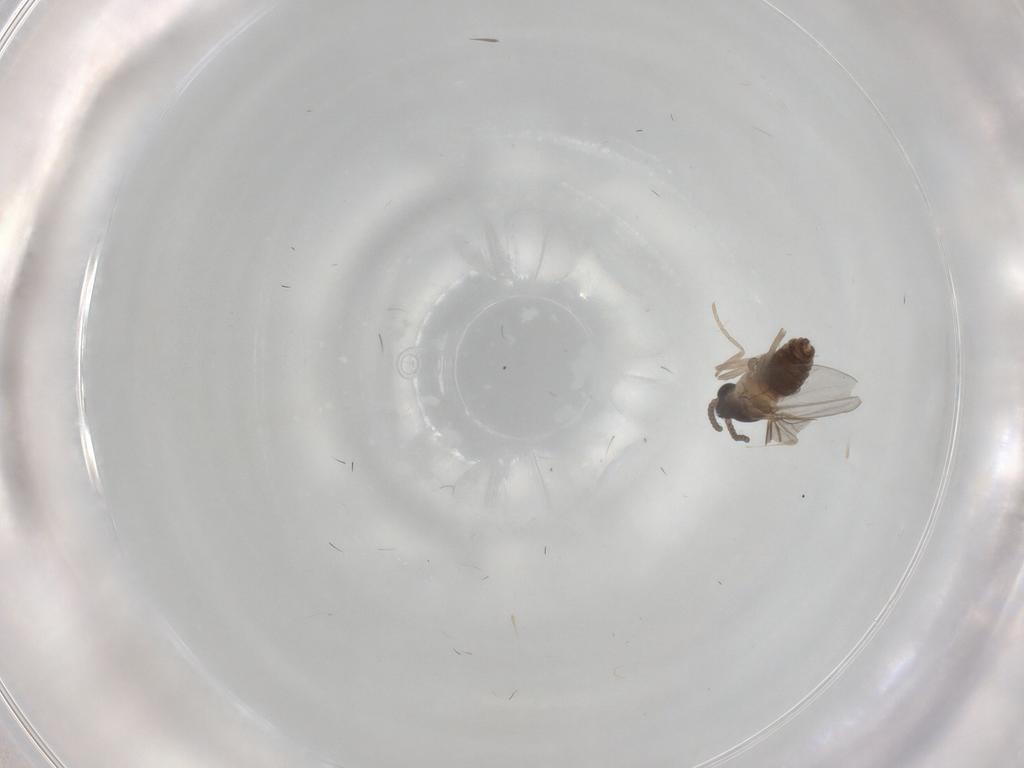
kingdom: Animalia
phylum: Arthropoda
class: Insecta
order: Diptera
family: Cecidomyiidae
